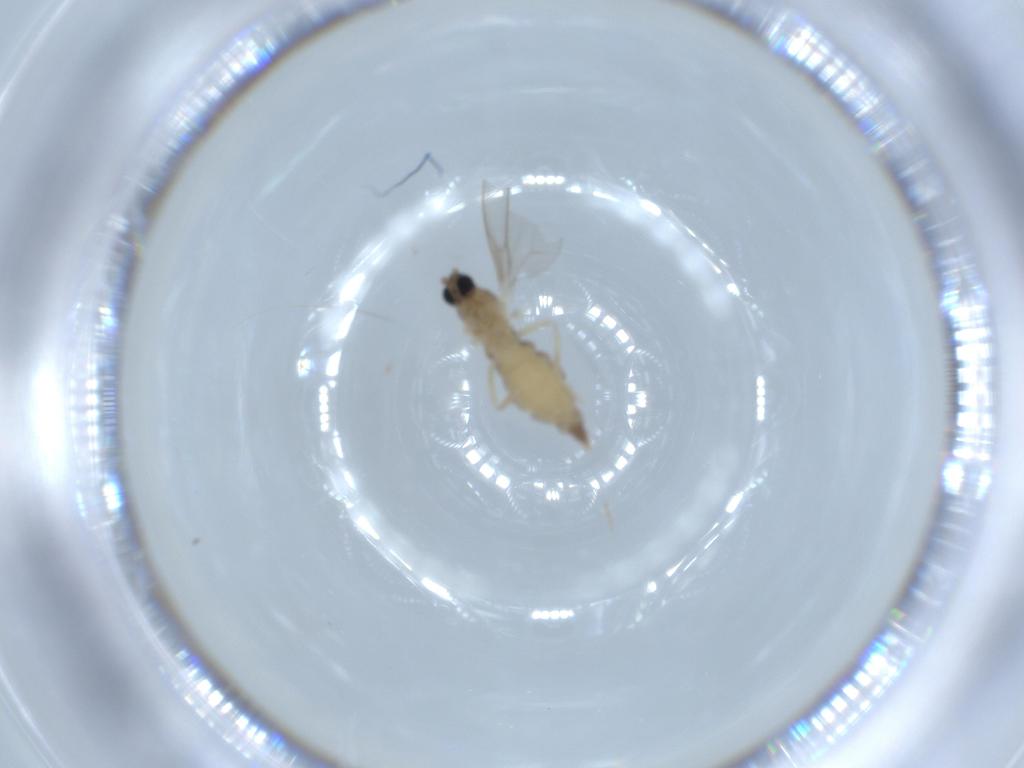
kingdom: Animalia
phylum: Arthropoda
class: Insecta
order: Diptera
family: Cecidomyiidae
